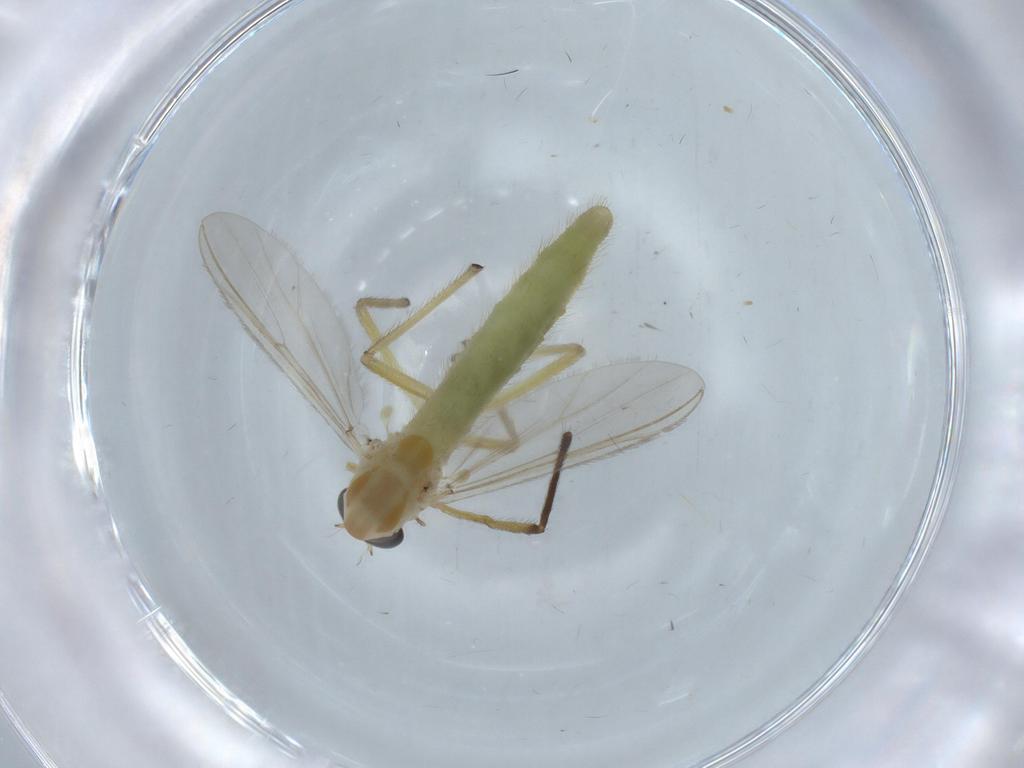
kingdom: Animalia
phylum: Arthropoda
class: Insecta
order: Diptera
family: Chironomidae
